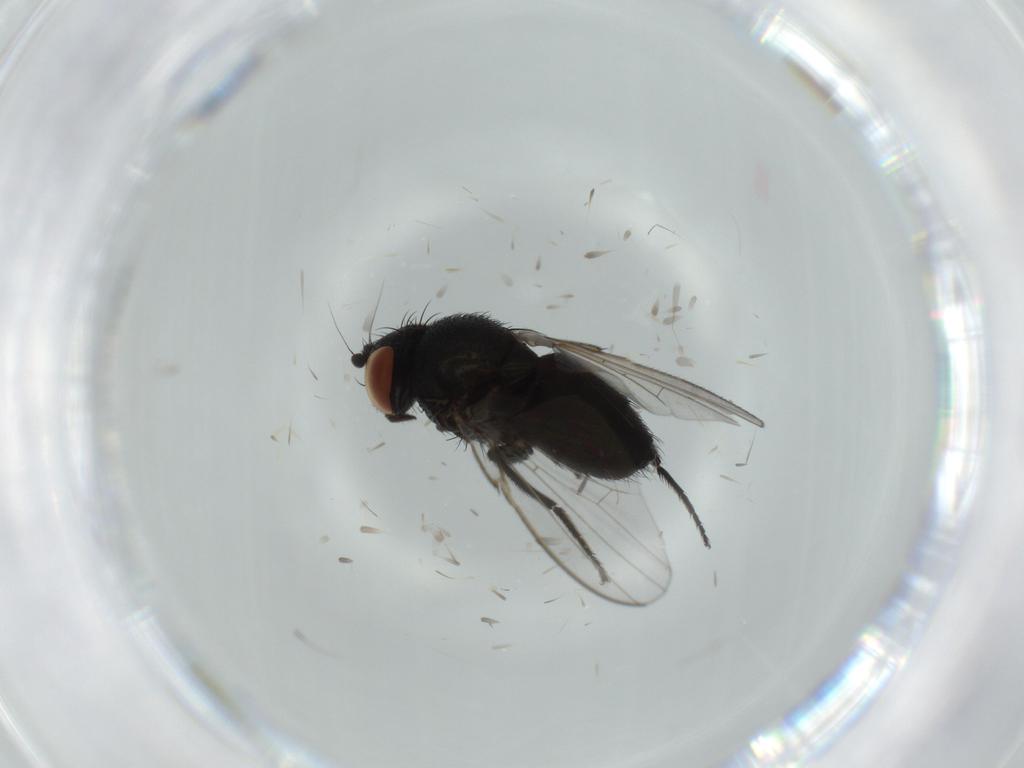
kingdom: Animalia
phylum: Arthropoda
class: Insecta
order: Diptera
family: Milichiidae
